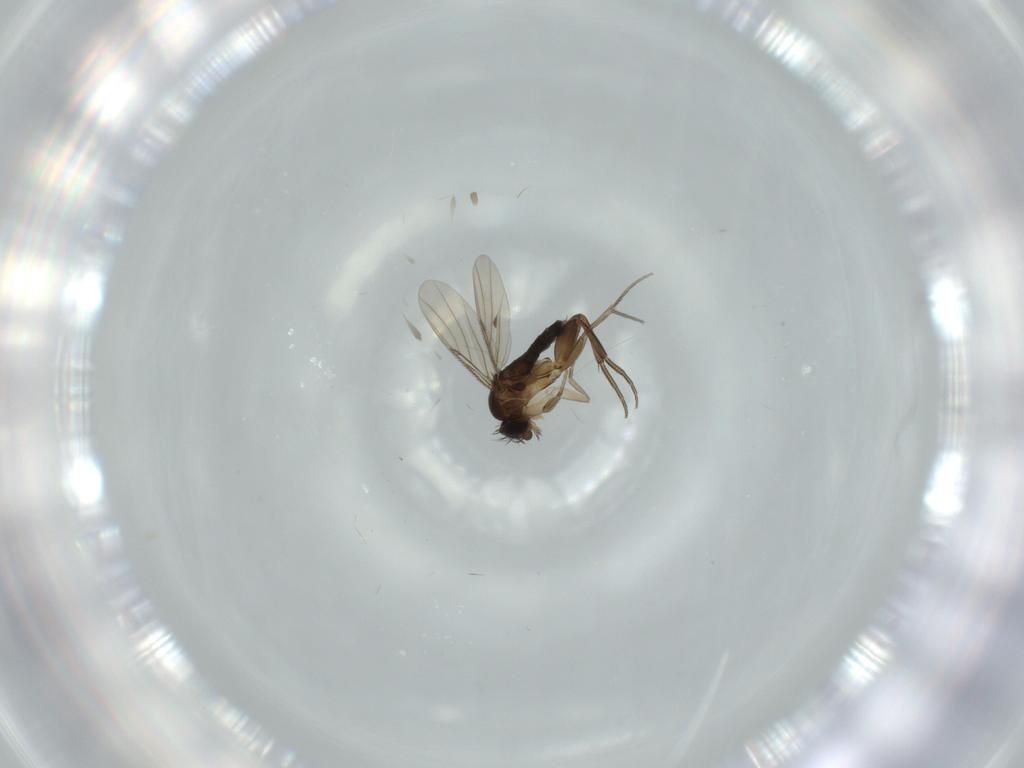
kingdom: Animalia
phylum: Arthropoda
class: Insecta
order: Diptera
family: Phoridae
